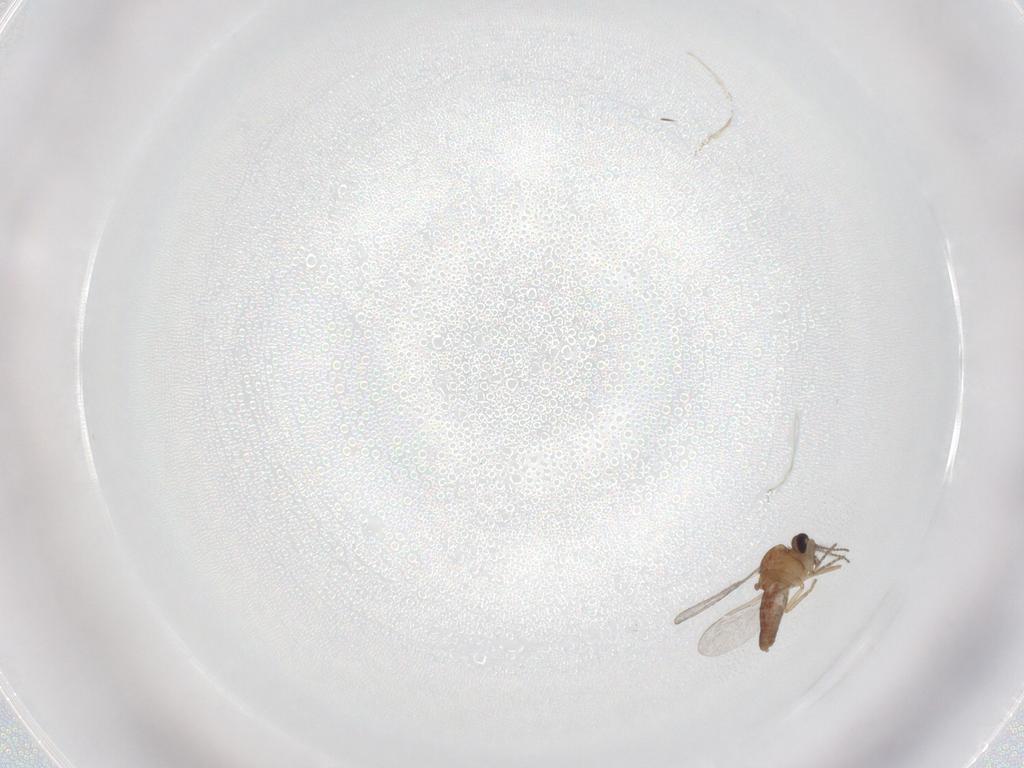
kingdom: Animalia
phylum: Arthropoda
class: Insecta
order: Diptera
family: Ceratopogonidae
